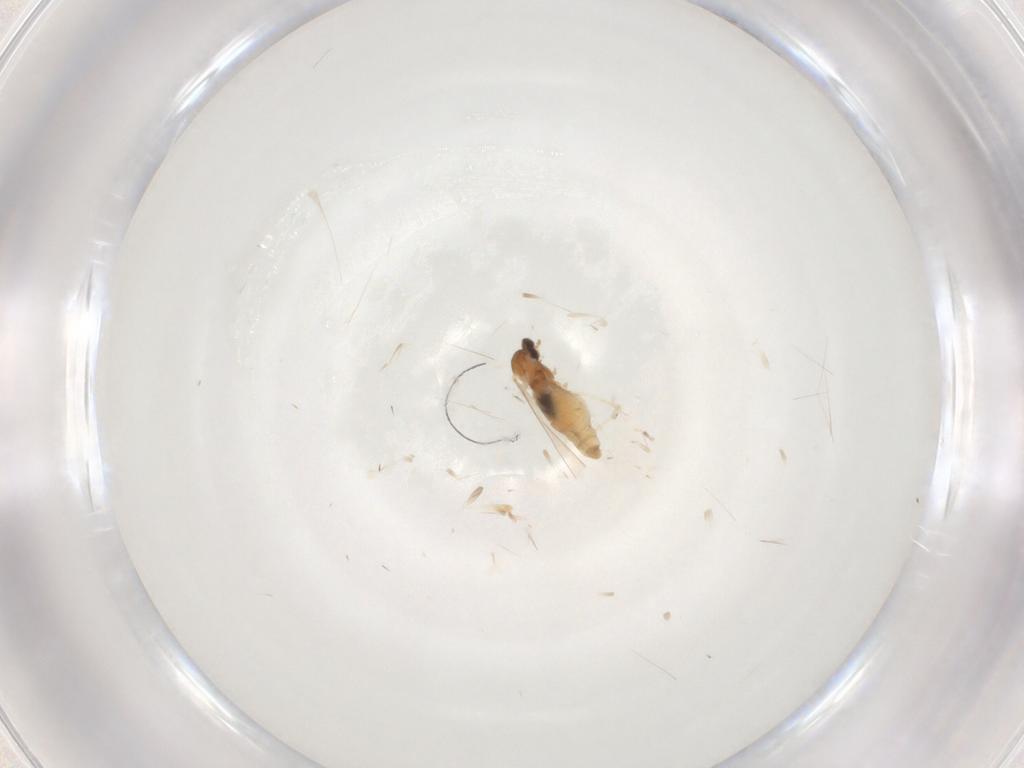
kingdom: Animalia
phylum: Arthropoda
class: Insecta
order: Diptera
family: Cecidomyiidae
